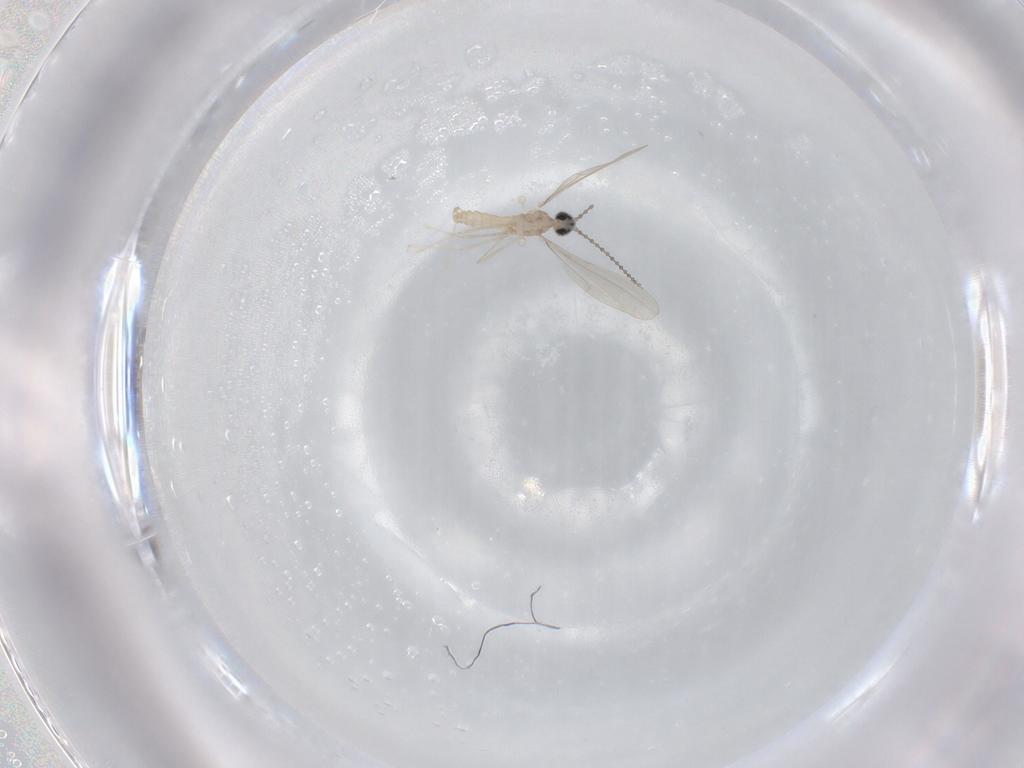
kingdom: Animalia
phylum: Arthropoda
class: Insecta
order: Diptera
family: Cecidomyiidae
